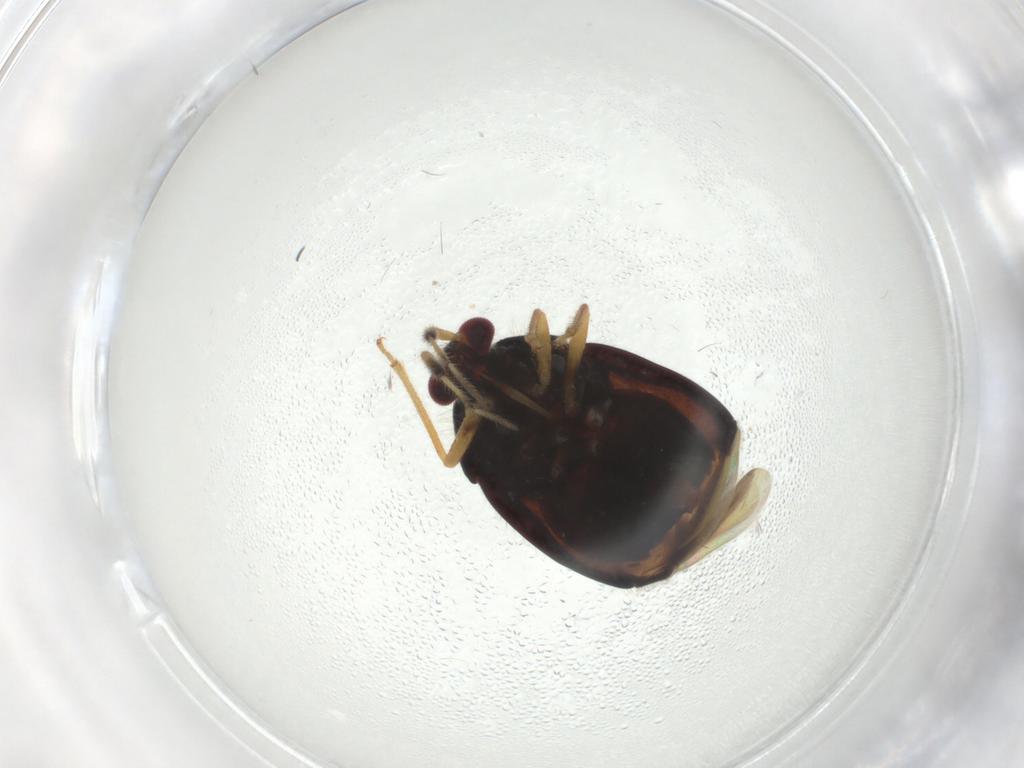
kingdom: Animalia
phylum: Arthropoda
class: Insecta
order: Hemiptera
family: Miridae
